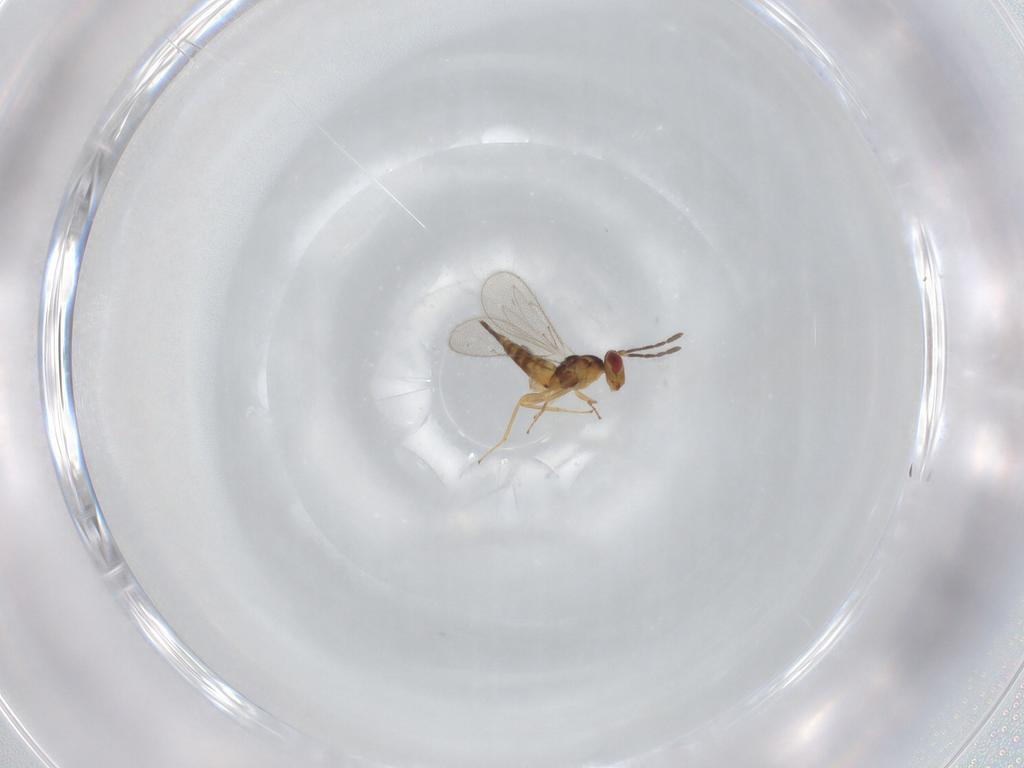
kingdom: Animalia
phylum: Arthropoda
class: Insecta
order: Hymenoptera
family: Eulophidae
